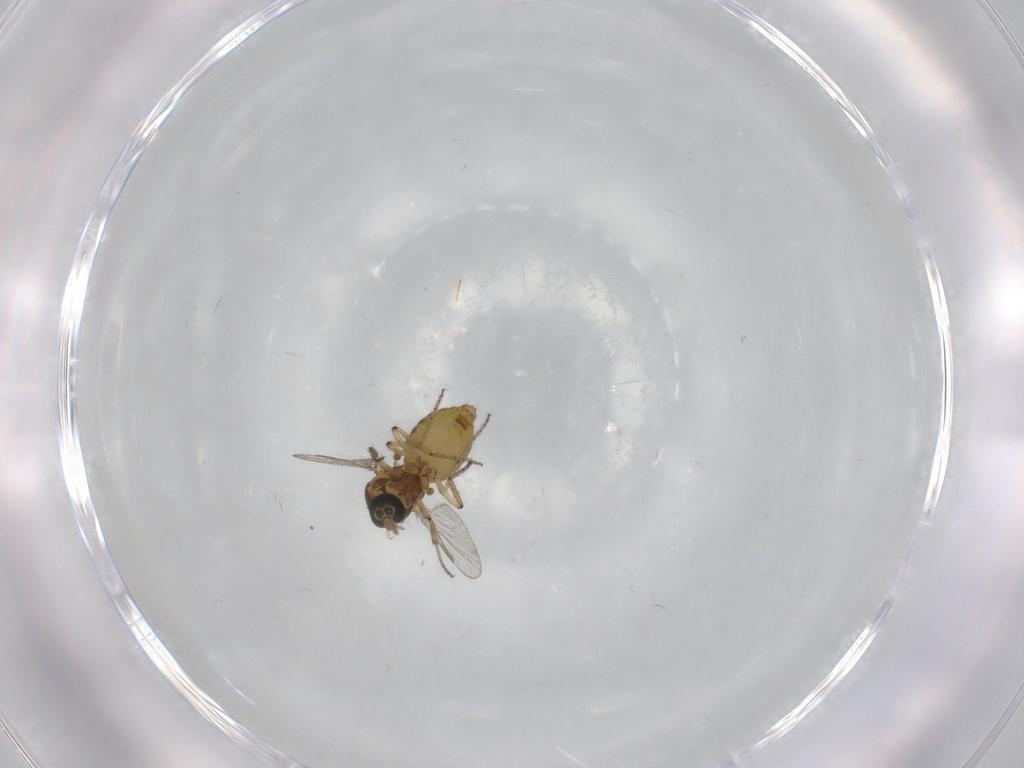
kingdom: Animalia
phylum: Arthropoda
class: Insecta
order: Diptera
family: Ceratopogonidae
